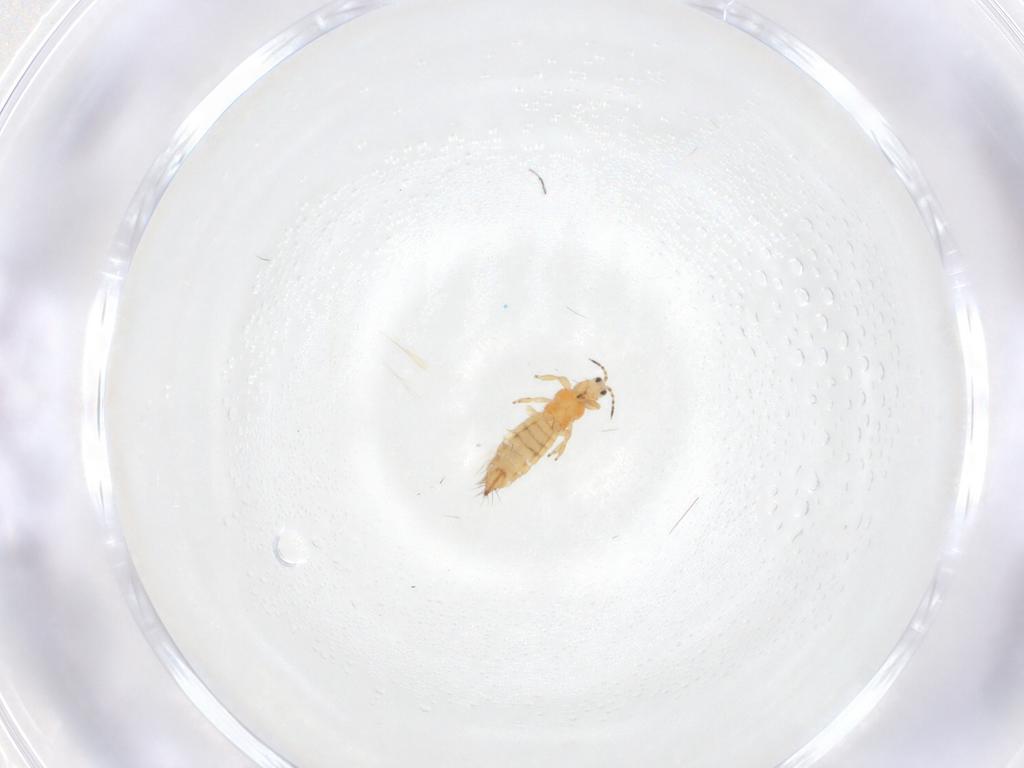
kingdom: Animalia
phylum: Arthropoda
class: Insecta
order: Thysanoptera
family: Thripidae
